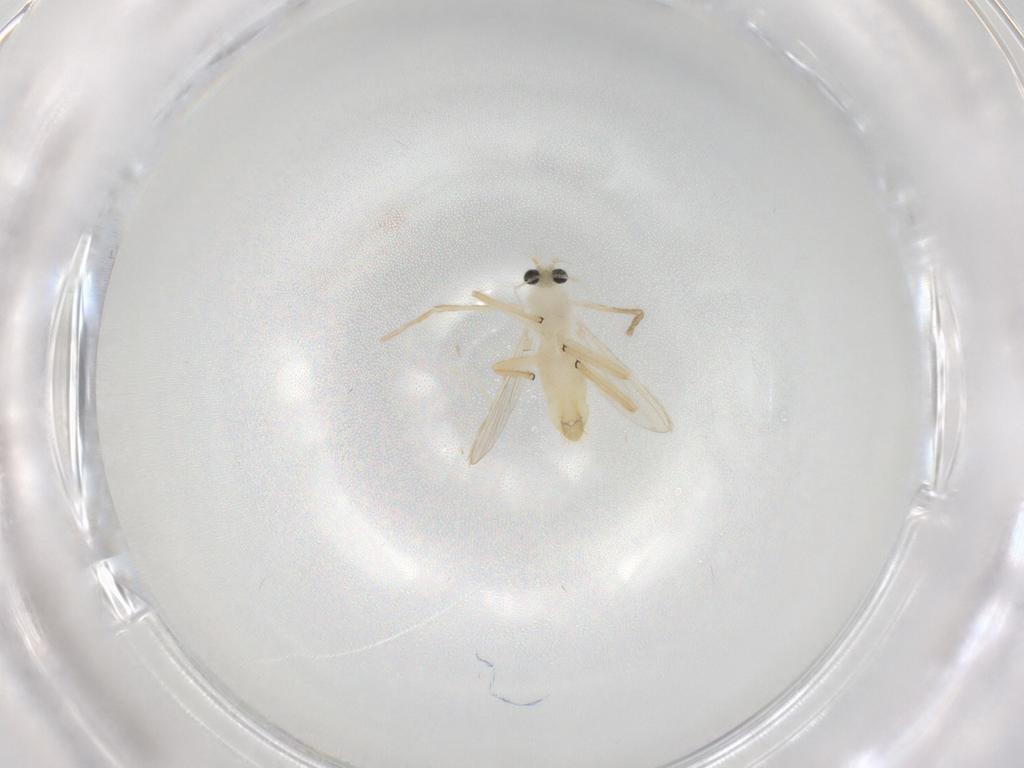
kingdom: Animalia
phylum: Arthropoda
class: Insecta
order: Diptera
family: Chironomidae
